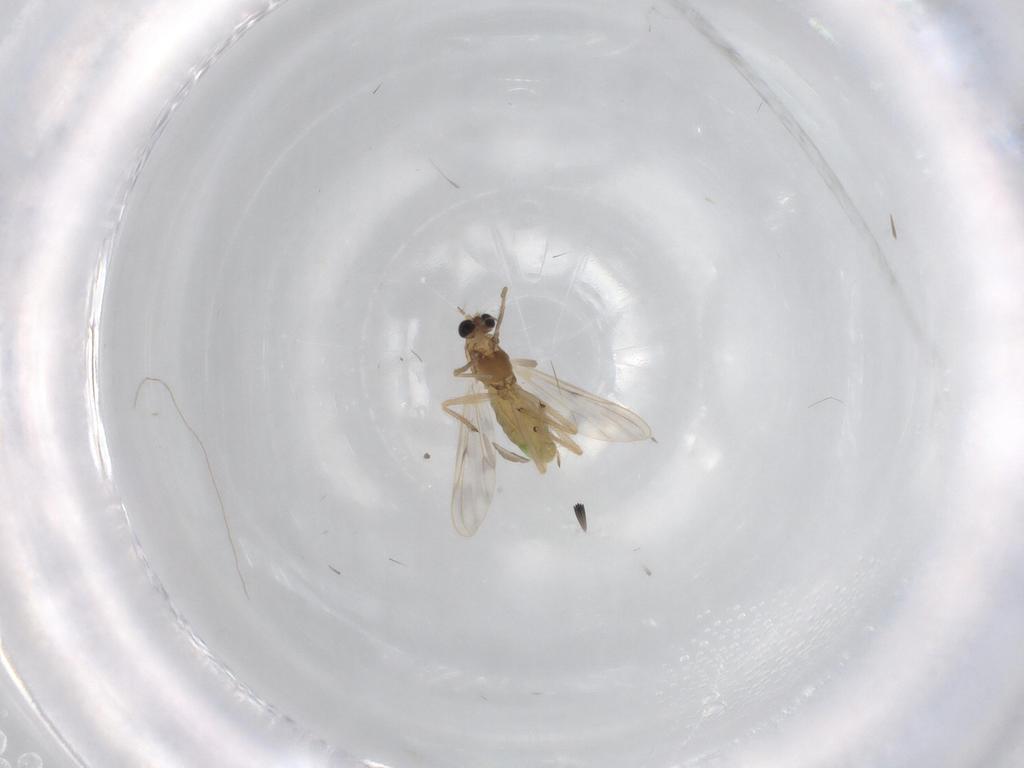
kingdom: Animalia
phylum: Arthropoda
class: Insecta
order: Diptera
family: Chironomidae
